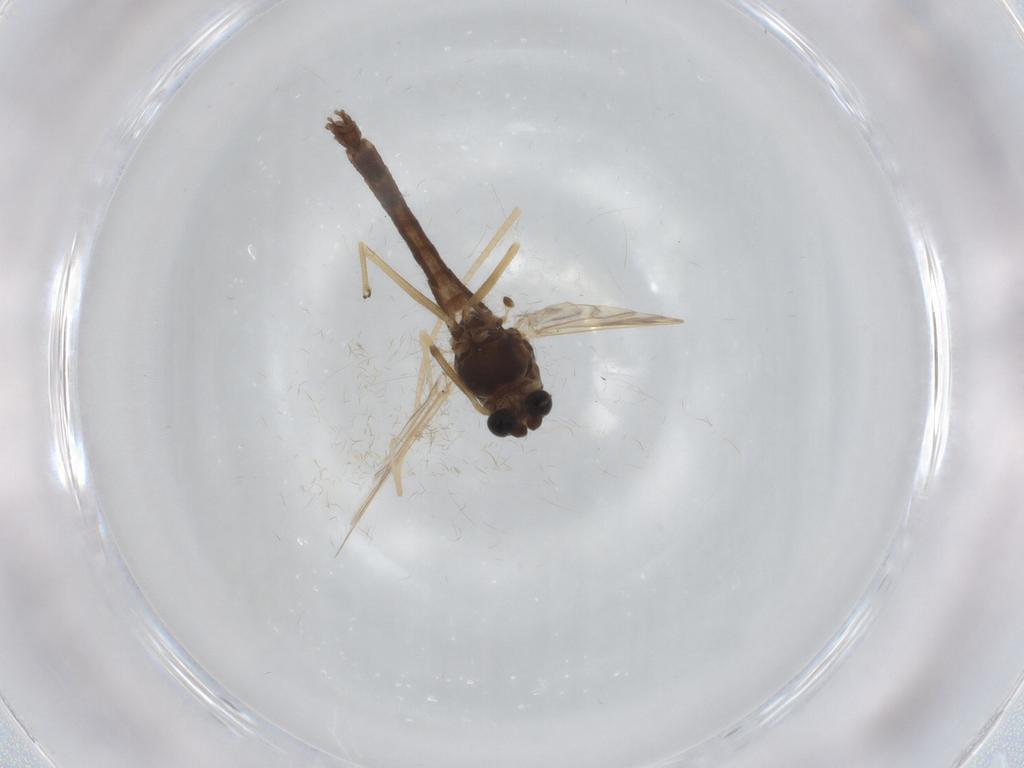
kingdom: Animalia
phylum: Arthropoda
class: Insecta
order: Diptera
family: Chironomidae
